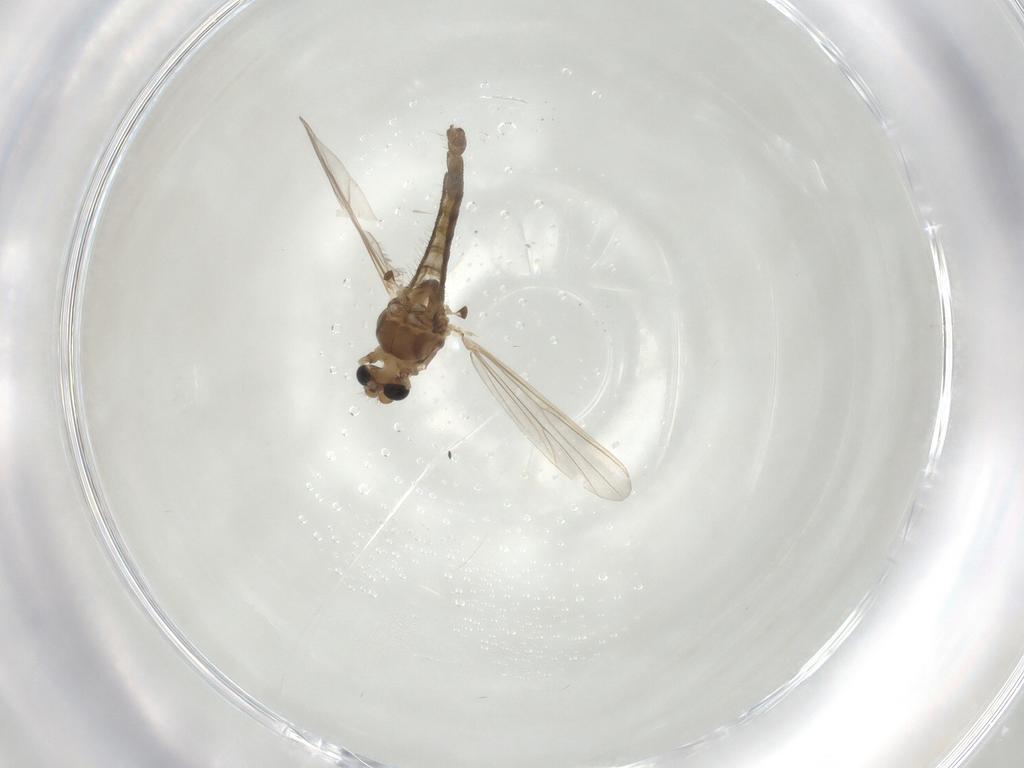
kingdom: Animalia
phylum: Arthropoda
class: Insecta
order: Diptera
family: Chironomidae
